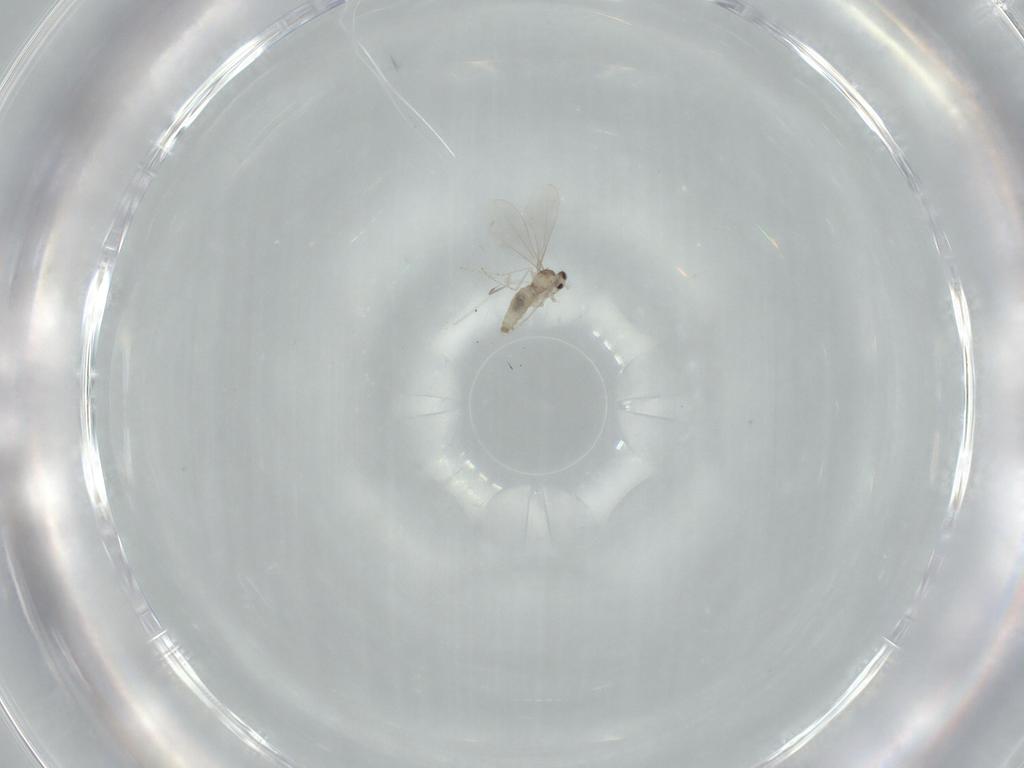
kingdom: Animalia
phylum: Arthropoda
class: Insecta
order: Diptera
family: Cecidomyiidae
